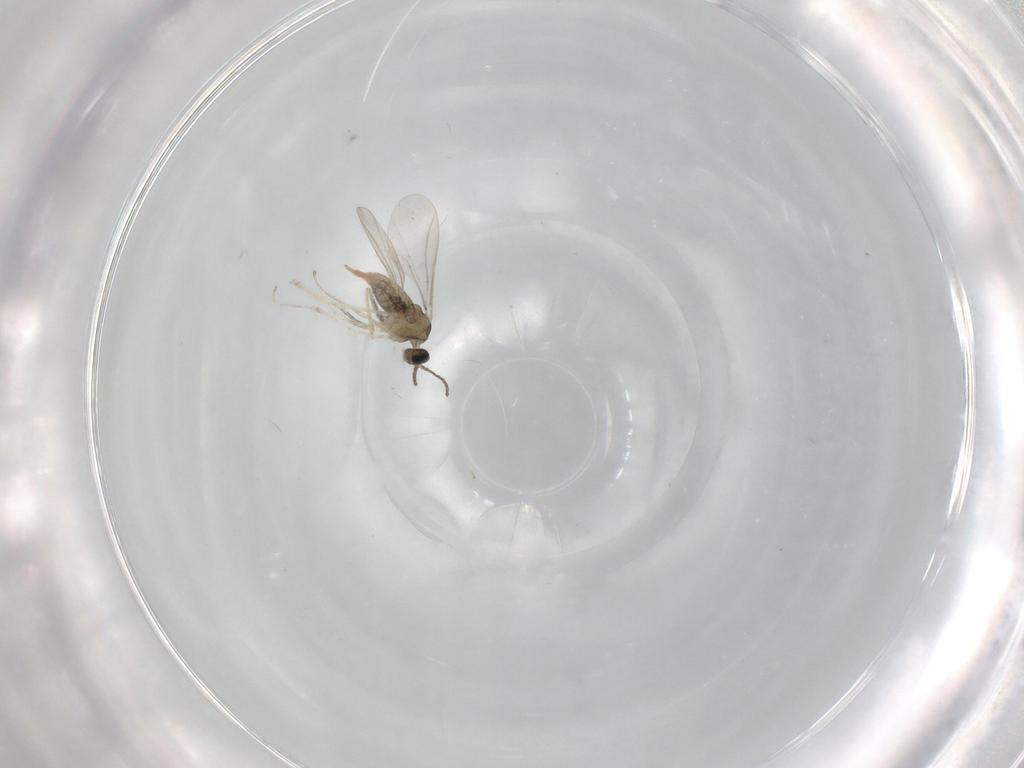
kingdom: Animalia
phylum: Arthropoda
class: Insecta
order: Diptera
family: Cecidomyiidae
